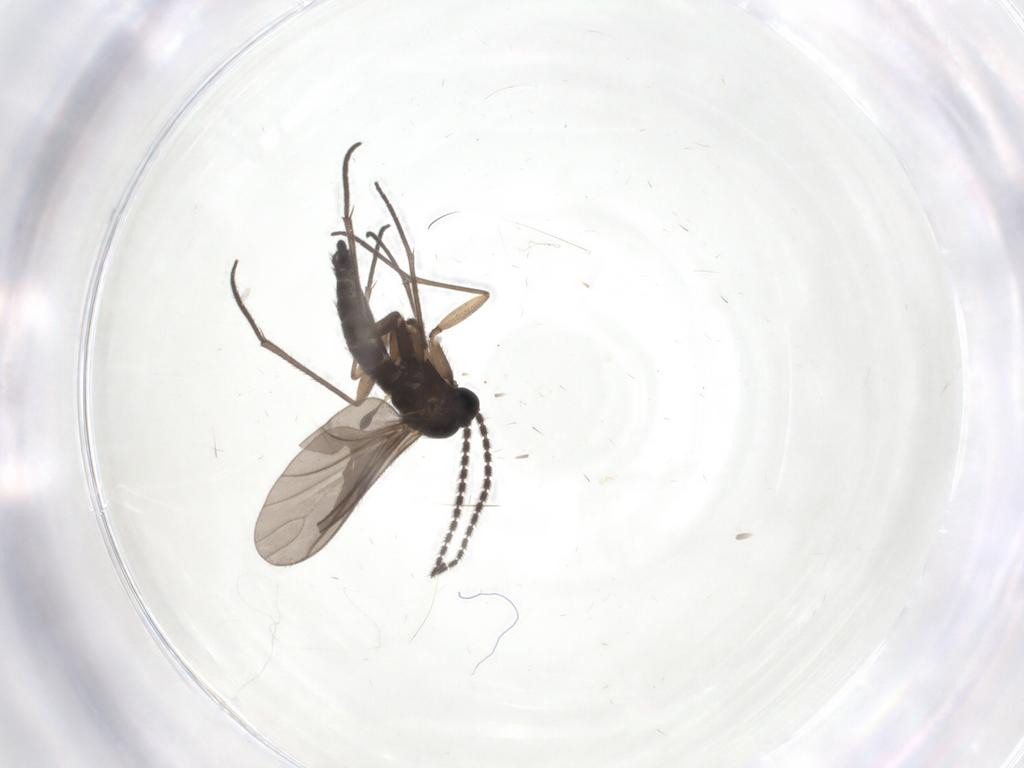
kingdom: Animalia
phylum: Arthropoda
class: Insecta
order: Diptera
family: Sciaridae
